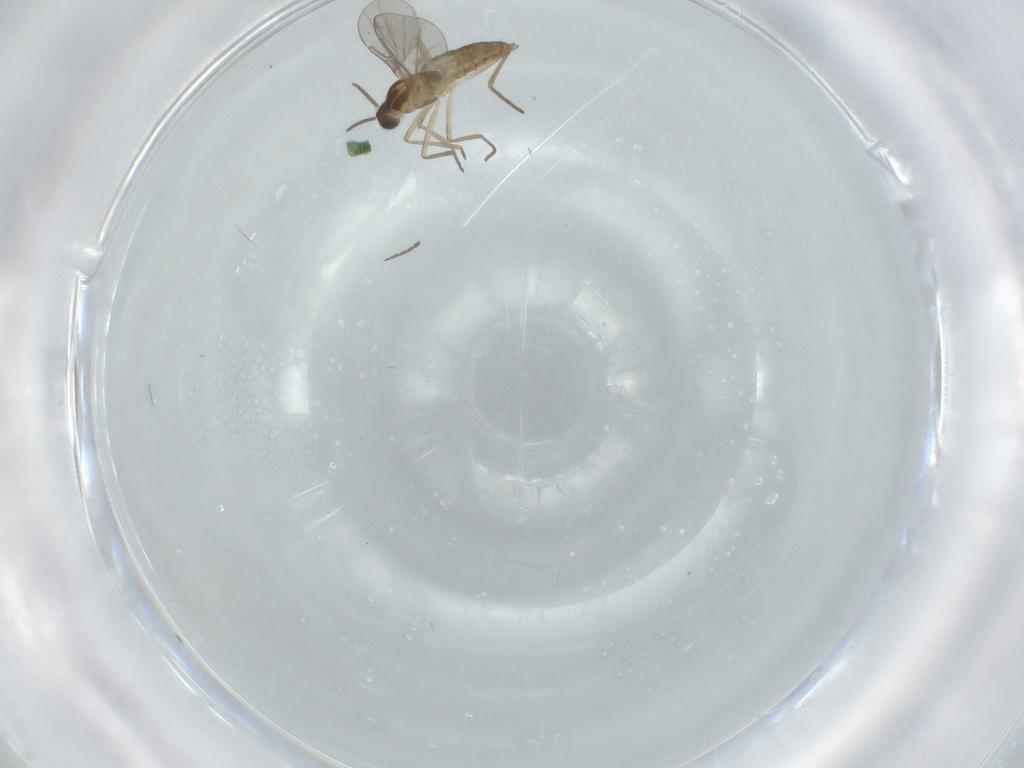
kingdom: Animalia
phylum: Arthropoda
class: Insecta
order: Diptera
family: Cecidomyiidae
